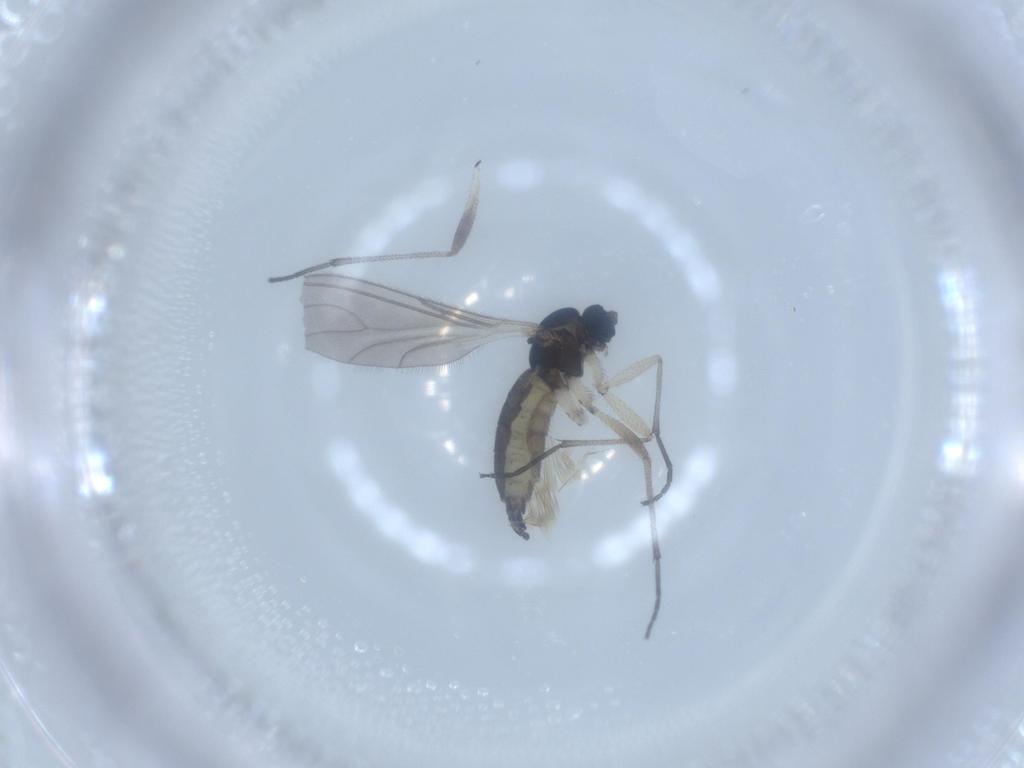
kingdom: Animalia
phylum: Arthropoda
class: Insecta
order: Diptera
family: Sciaridae
